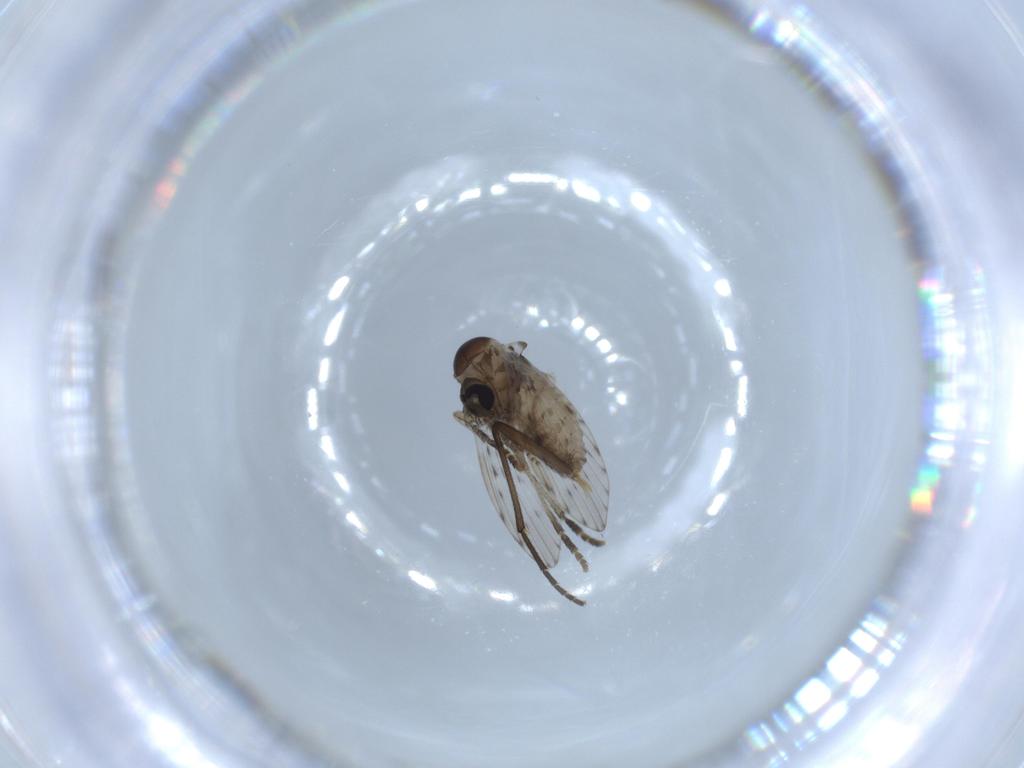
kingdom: Animalia
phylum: Arthropoda
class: Insecta
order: Diptera
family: Psychodidae
